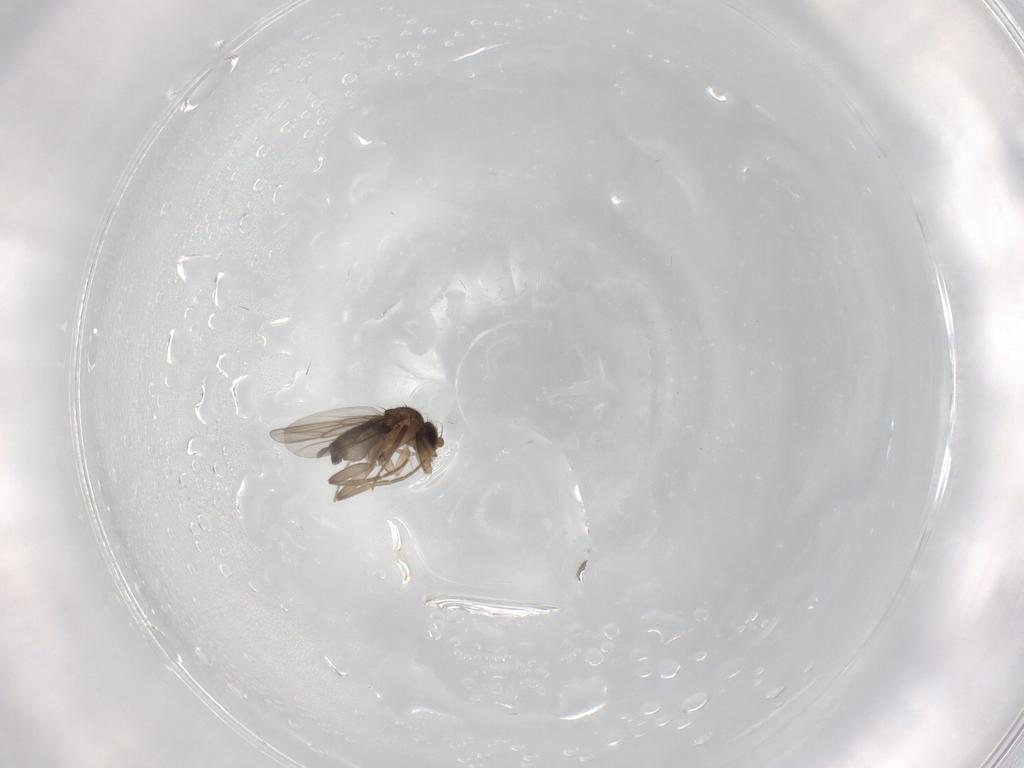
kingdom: Animalia
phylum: Arthropoda
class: Insecta
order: Diptera
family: Phoridae
